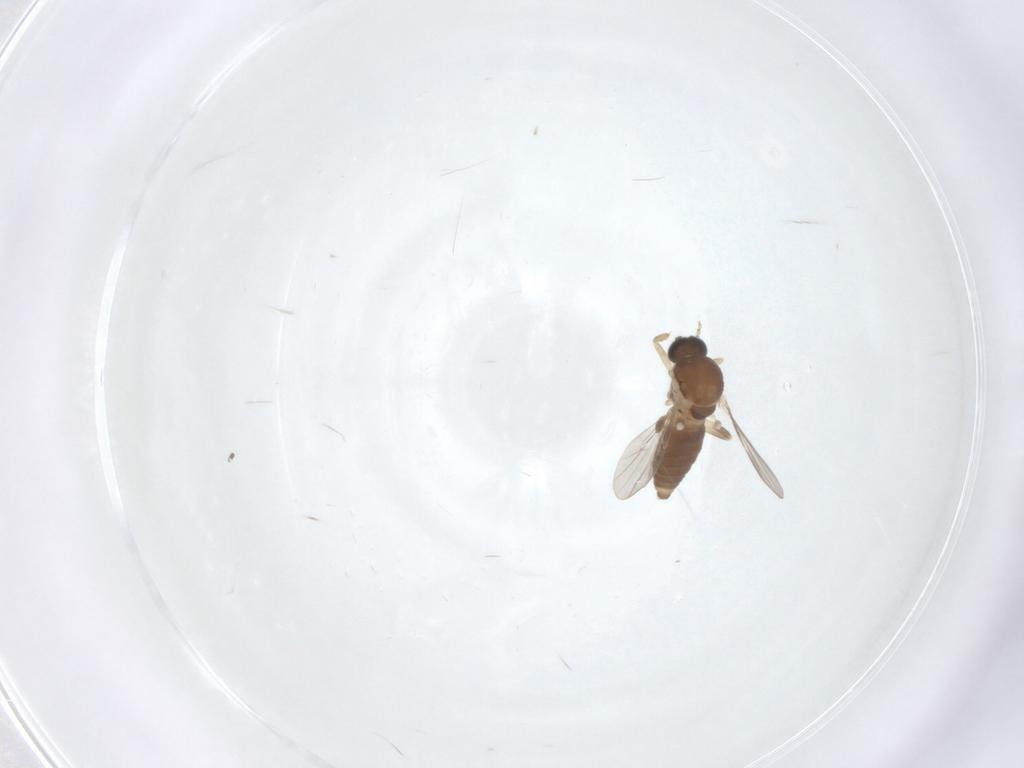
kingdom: Animalia
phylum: Arthropoda
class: Insecta
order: Diptera
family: Ceratopogonidae
